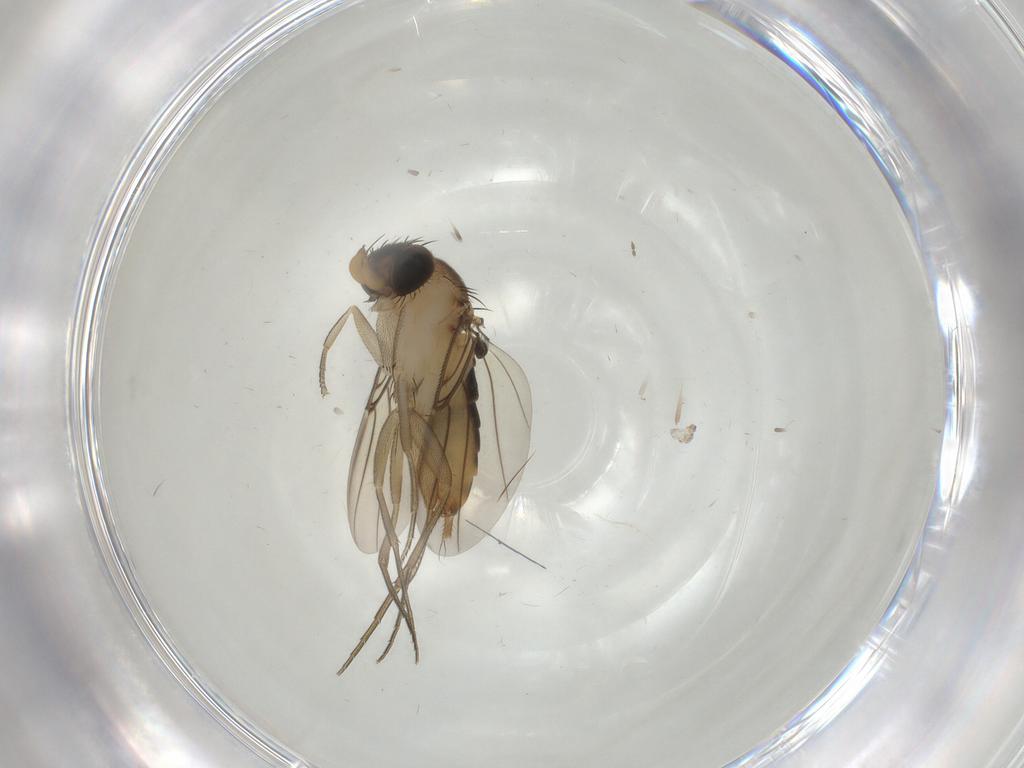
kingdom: Animalia
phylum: Arthropoda
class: Insecta
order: Diptera
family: Phoridae
